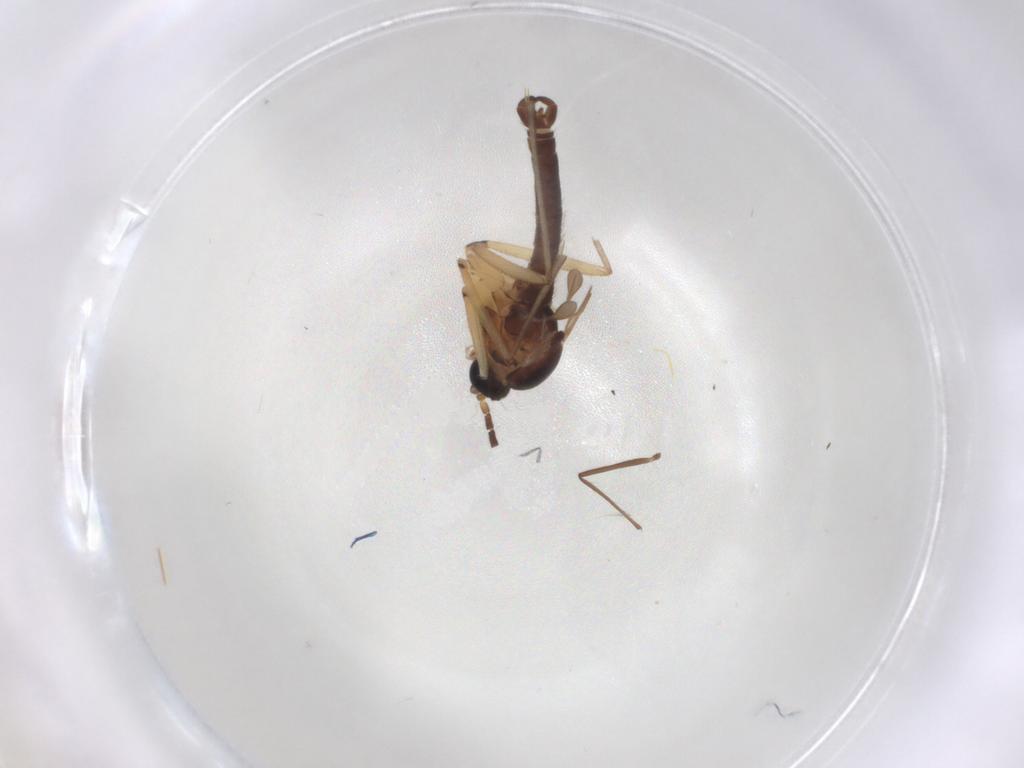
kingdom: Animalia
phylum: Arthropoda
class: Insecta
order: Diptera
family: Sciaridae
